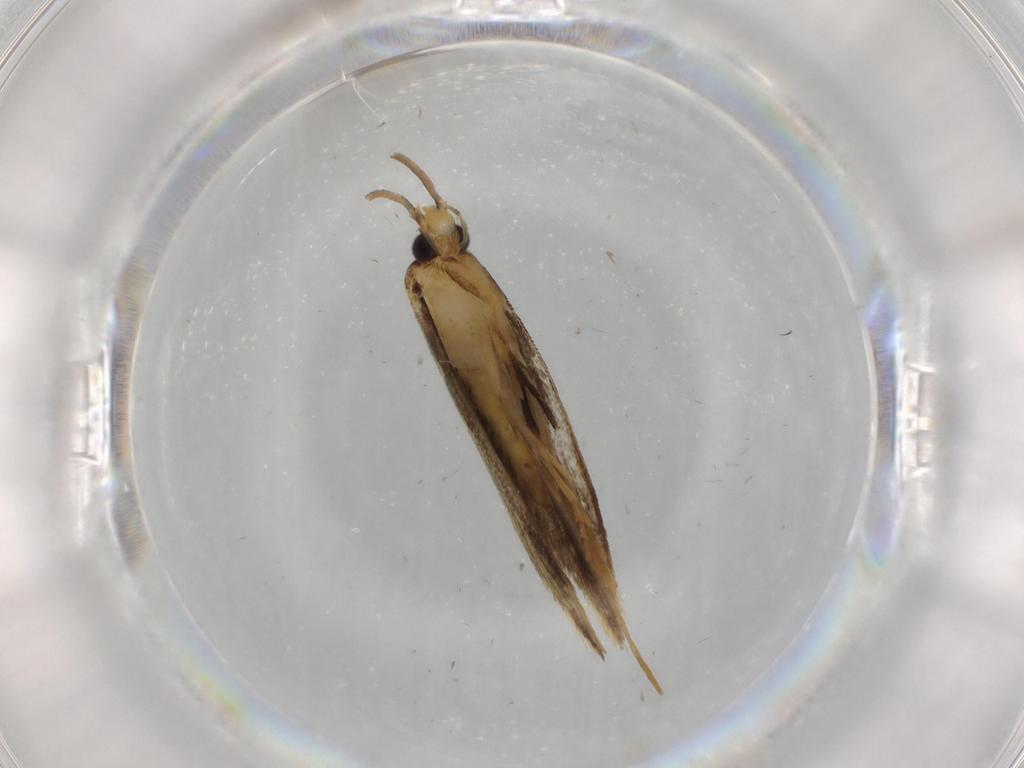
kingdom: Animalia
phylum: Arthropoda
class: Insecta
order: Lepidoptera
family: Tineidae
